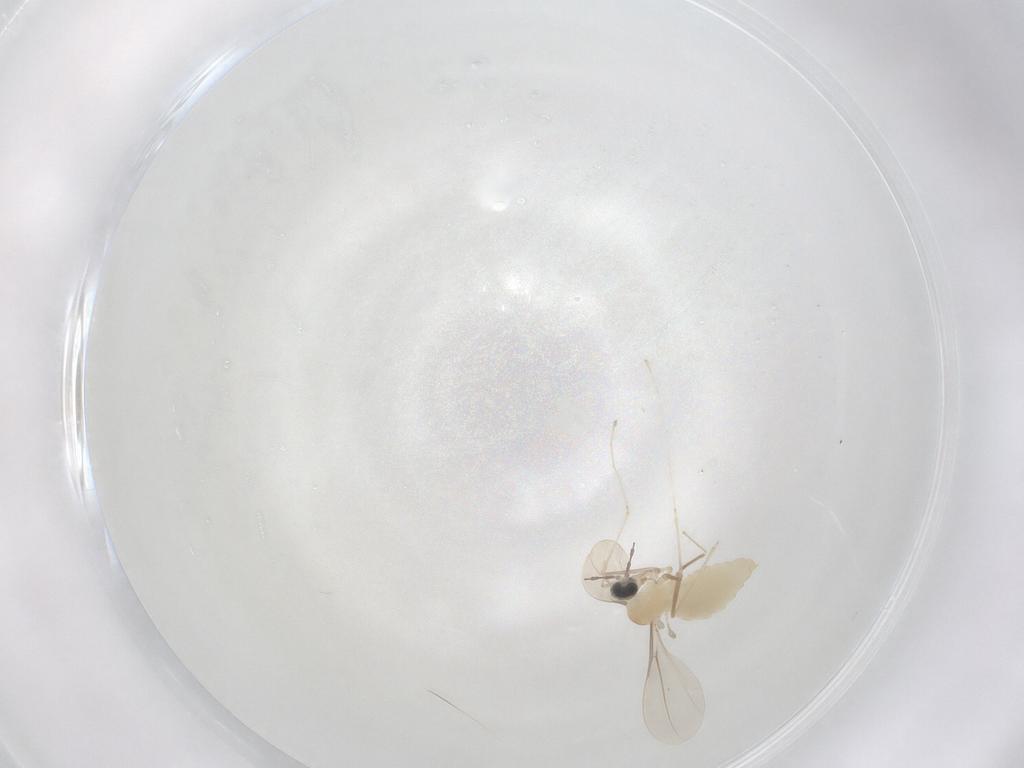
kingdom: Animalia
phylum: Arthropoda
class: Insecta
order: Diptera
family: Cecidomyiidae
